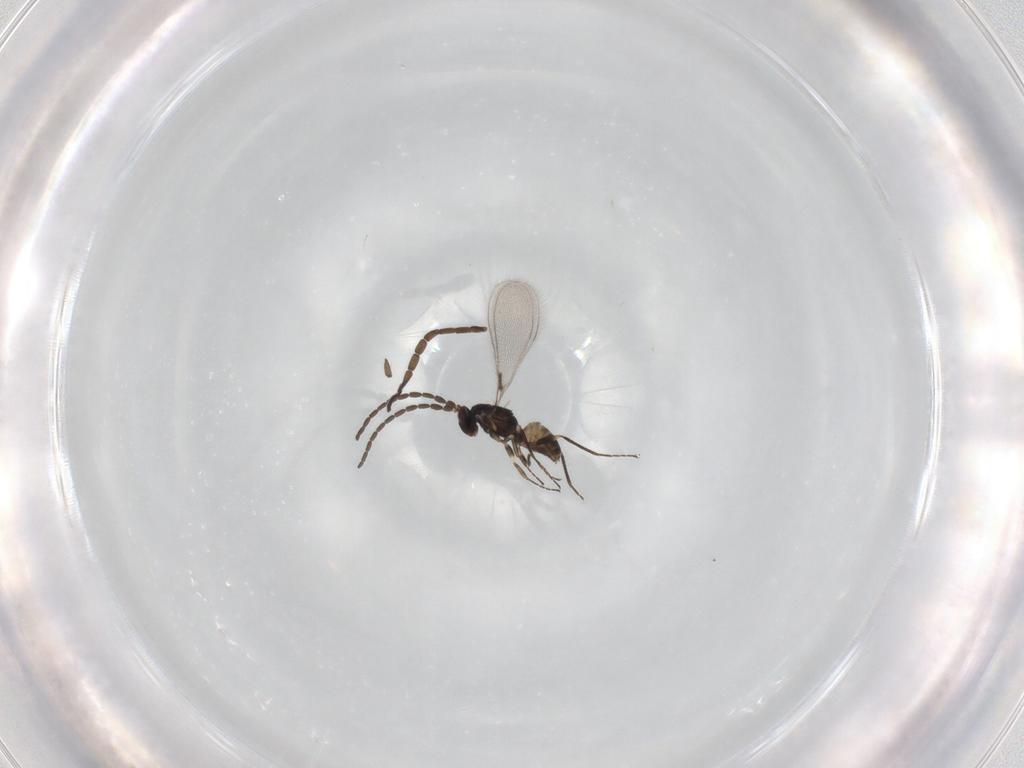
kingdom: Animalia
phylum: Arthropoda
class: Insecta
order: Hymenoptera
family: Mymaridae
